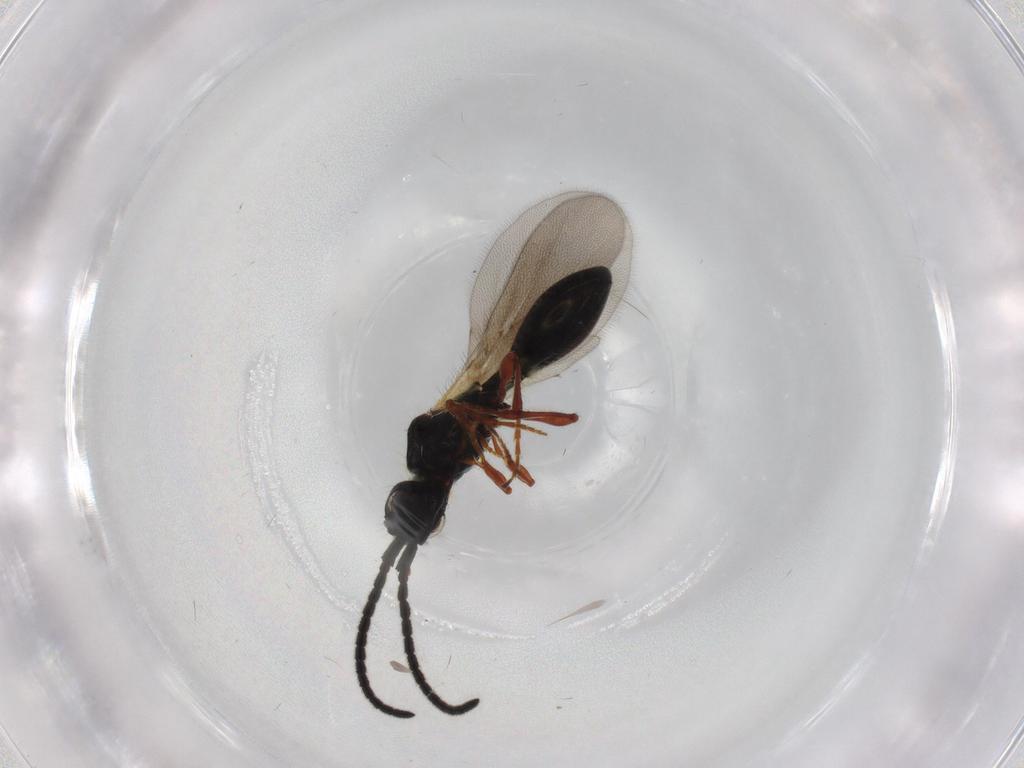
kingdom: Animalia
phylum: Arthropoda
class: Insecta
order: Hymenoptera
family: Diapriidae
